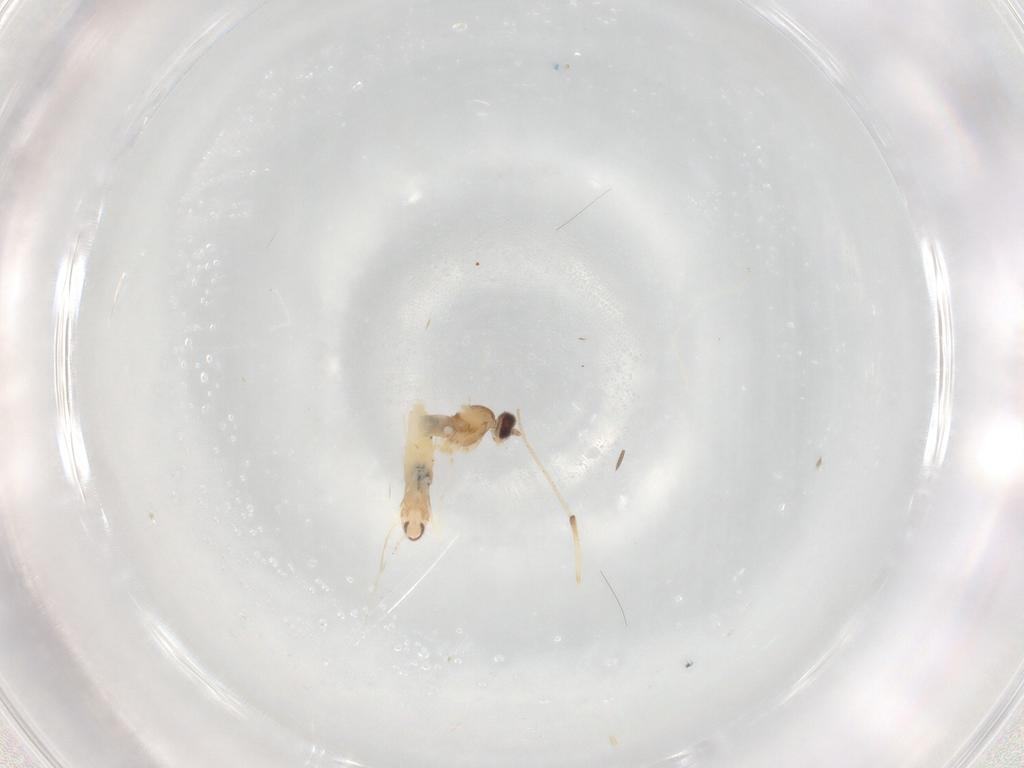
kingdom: Animalia
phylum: Arthropoda
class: Insecta
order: Diptera
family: Cecidomyiidae
